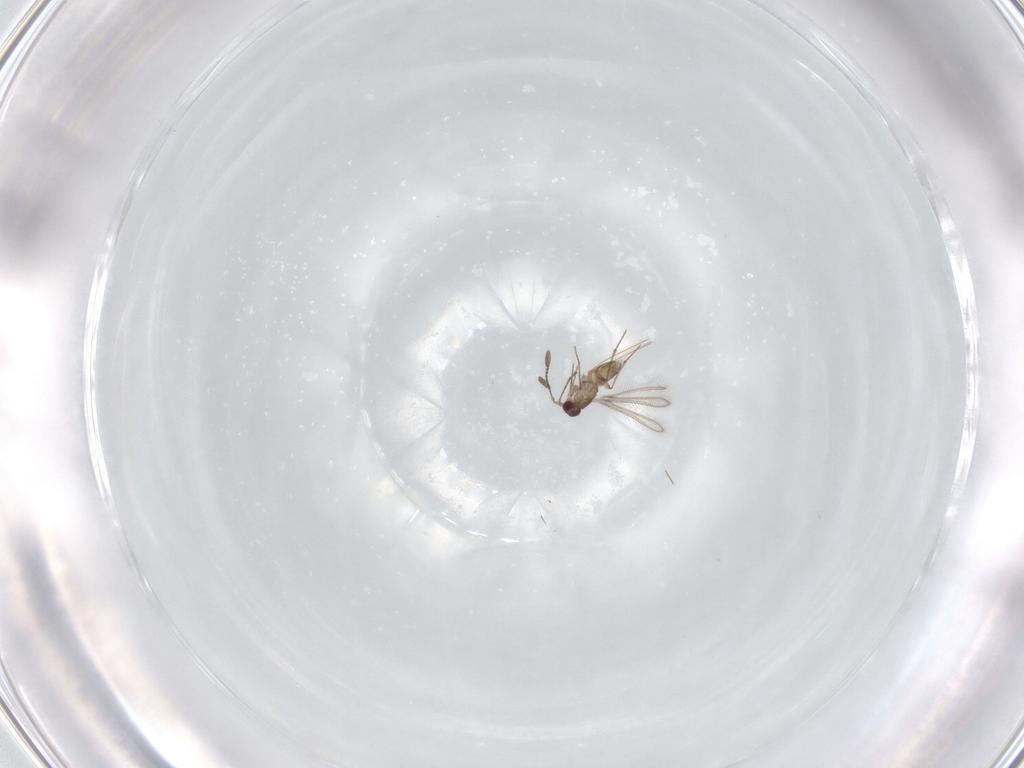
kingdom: Animalia
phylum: Arthropoda
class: Insecta
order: Hymenoptera
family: Mymaridae
